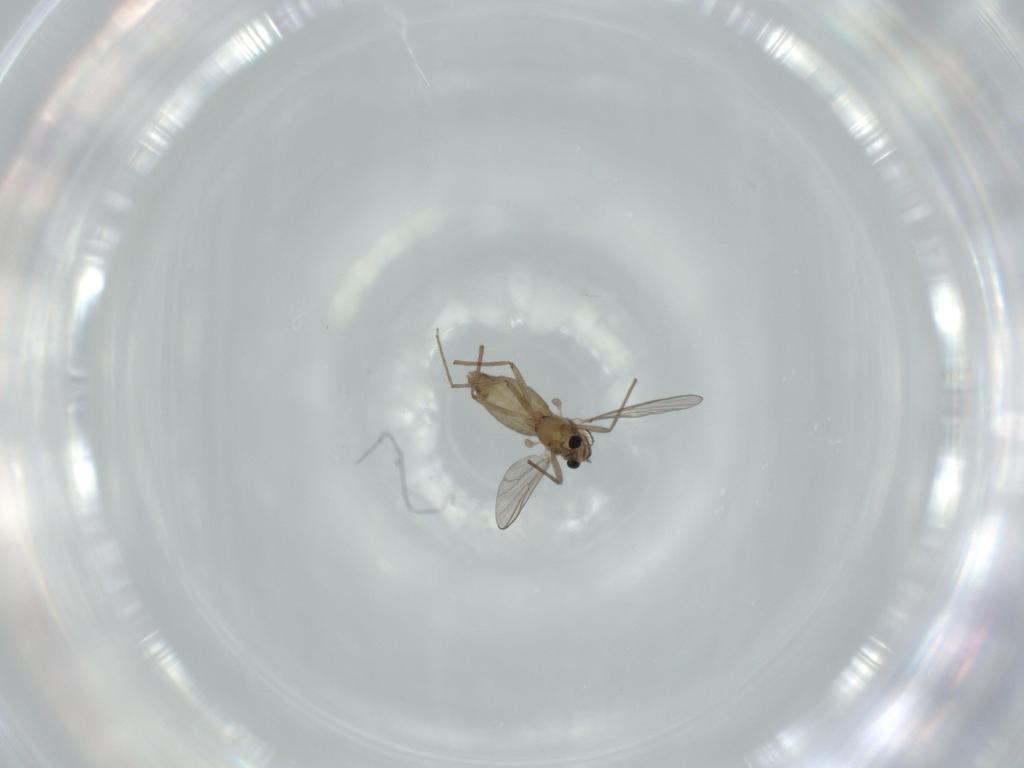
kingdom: Animalia
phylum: Arthropoda
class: Insecta
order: Diptera
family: Chironomidae
